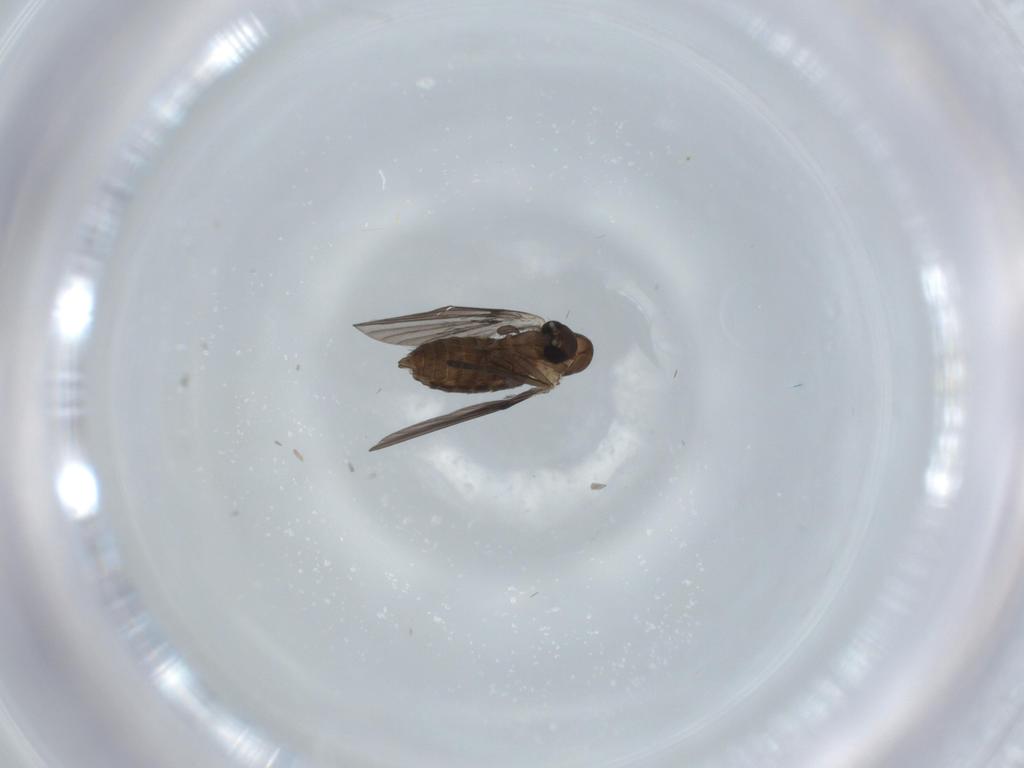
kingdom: Animalia
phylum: Arthropoda
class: Insecta
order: Diptera
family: Psychodidae
